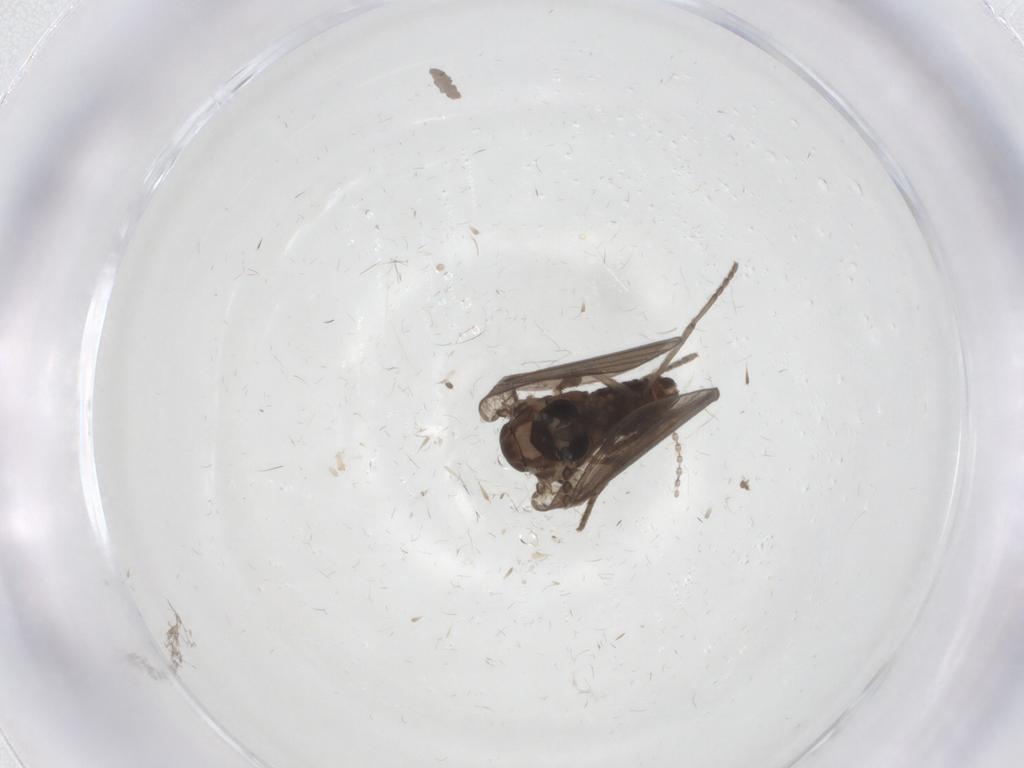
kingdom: Animalia
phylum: Arthropoda
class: Insecta
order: Diptera
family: Psychodidae
